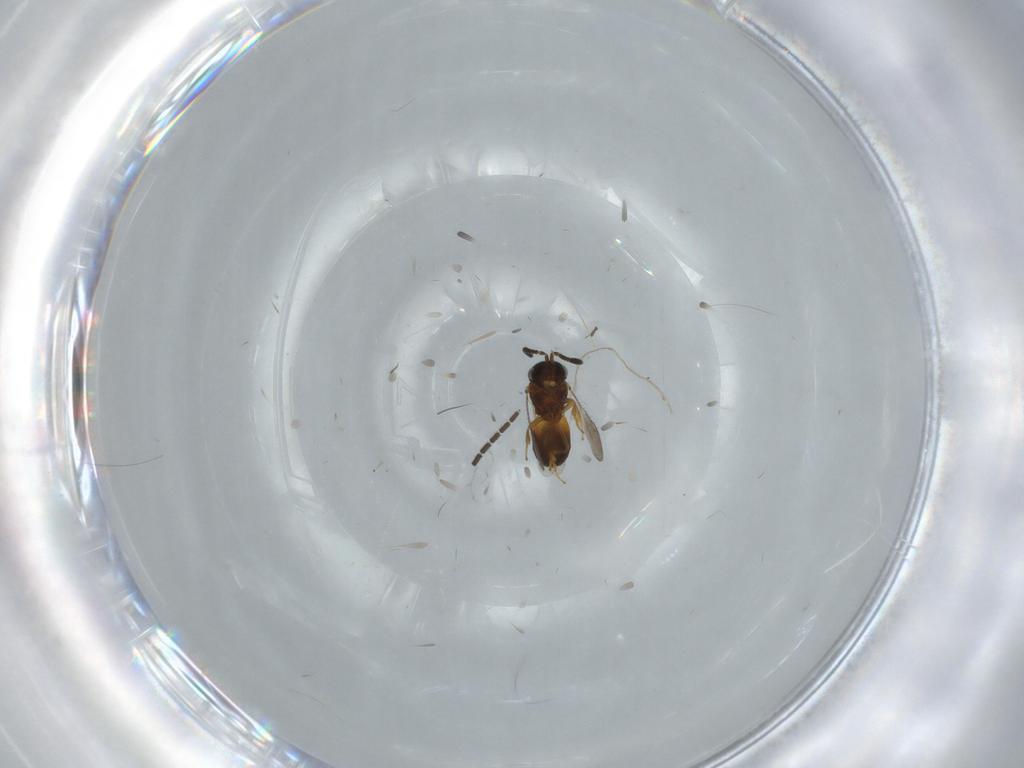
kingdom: Animalia
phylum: Arthropoda
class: Insecta
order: Hymenoptera
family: Scelionidae
